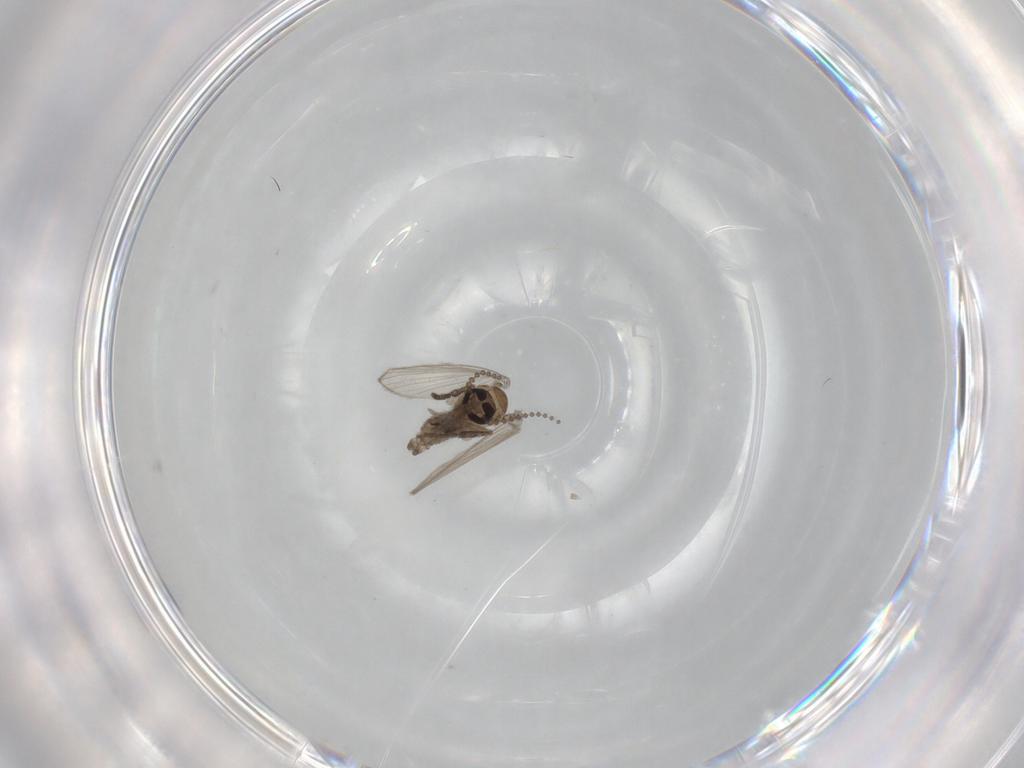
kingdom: Animalia
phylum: Arthropoda
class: Insecta
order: Diptera
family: Psychodidae
